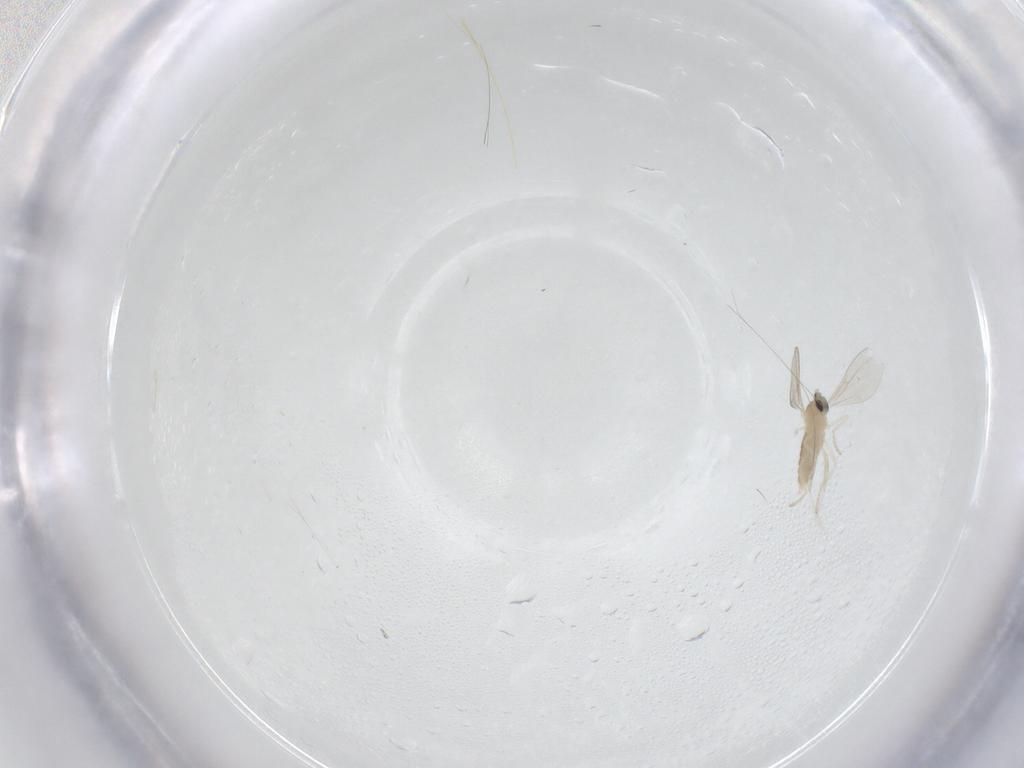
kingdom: Animalia
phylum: Arthropoda
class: Insecta
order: Diptera
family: Cecidomyiidae
